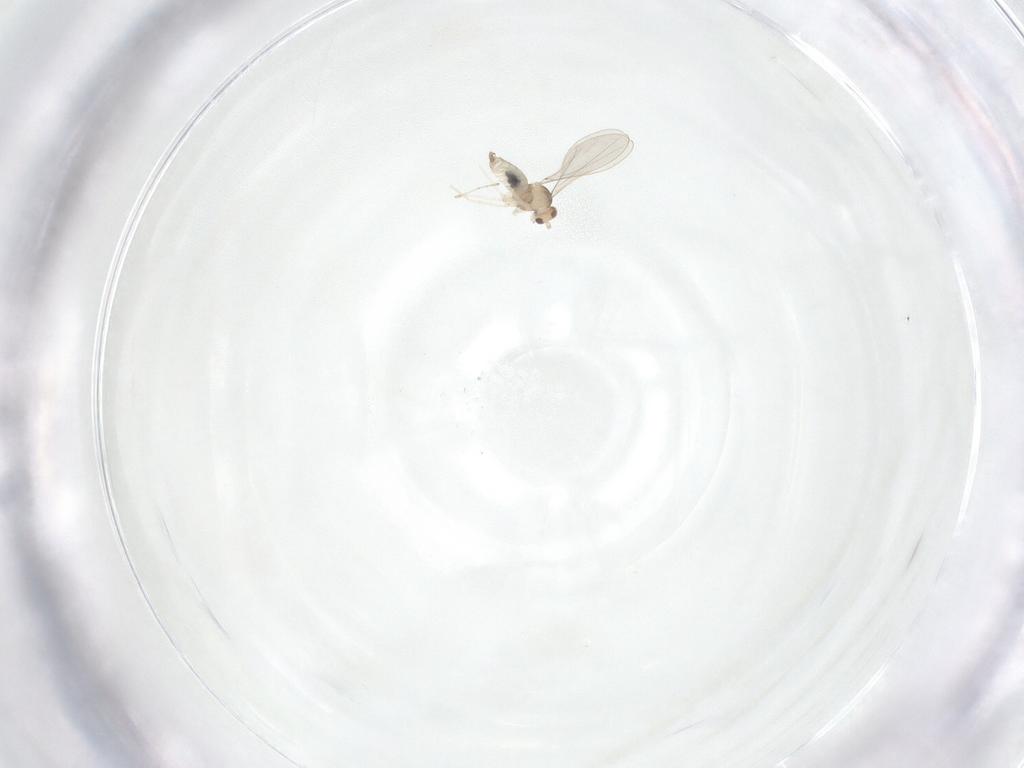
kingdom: Animalia
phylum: Arthropoda
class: Insecta
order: Diptera
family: Cecidomyiidae
